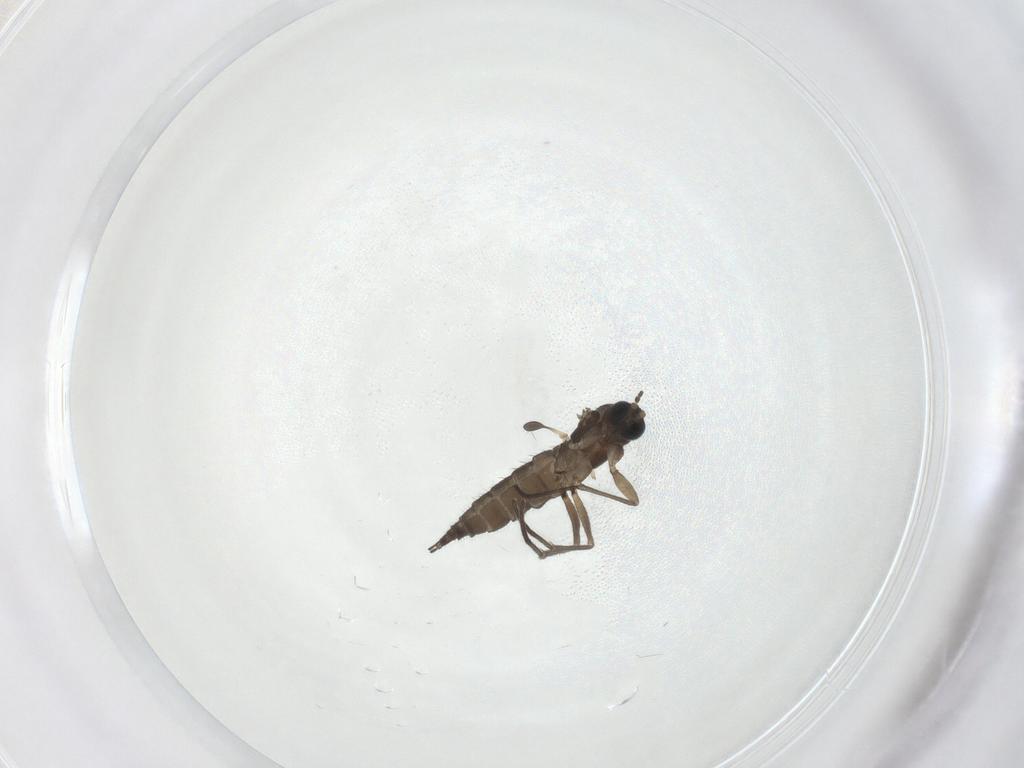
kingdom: Animalia
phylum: Arthropoda
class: Insecta
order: Diptera
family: Sciaridae
